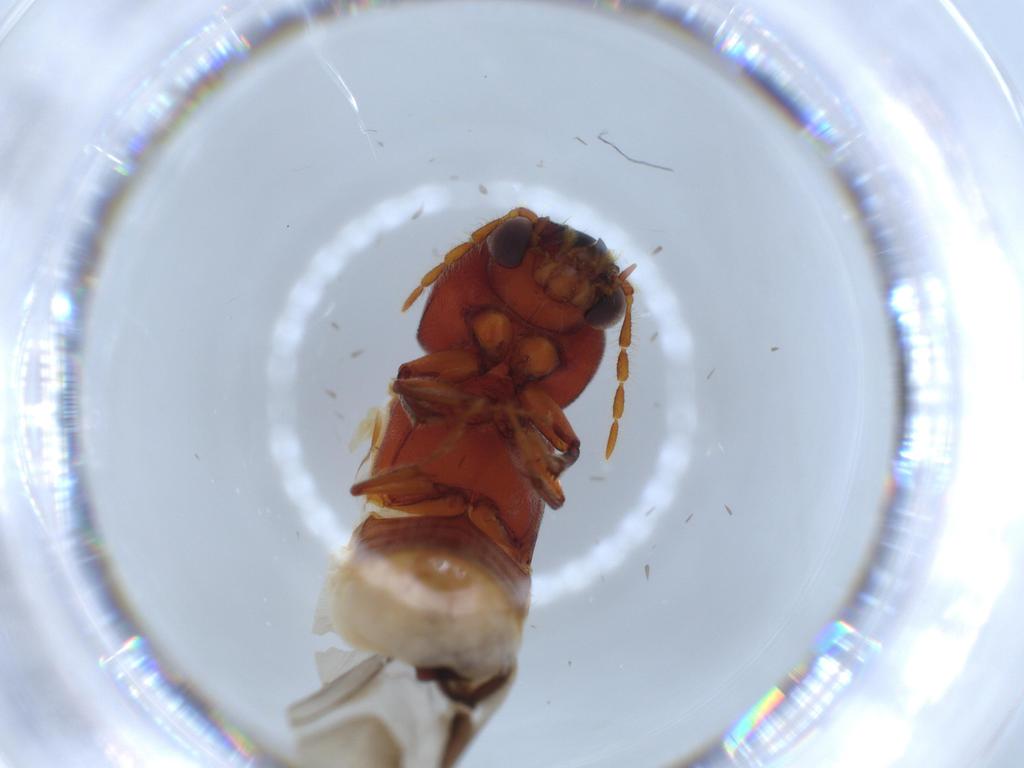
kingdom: Animalia
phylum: Arthropoda
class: Insecta
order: Coleoptera
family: Bostrichidae
